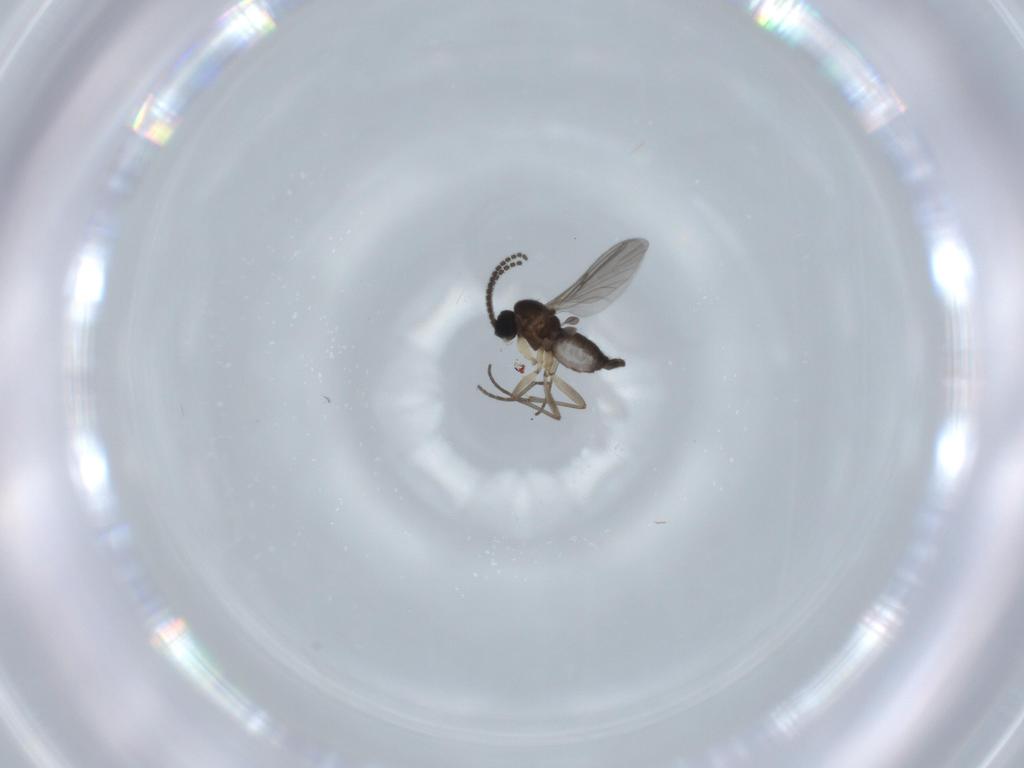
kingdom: Animalia
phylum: Arthropoda
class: Insecta
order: Diptera
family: Sciaridae
